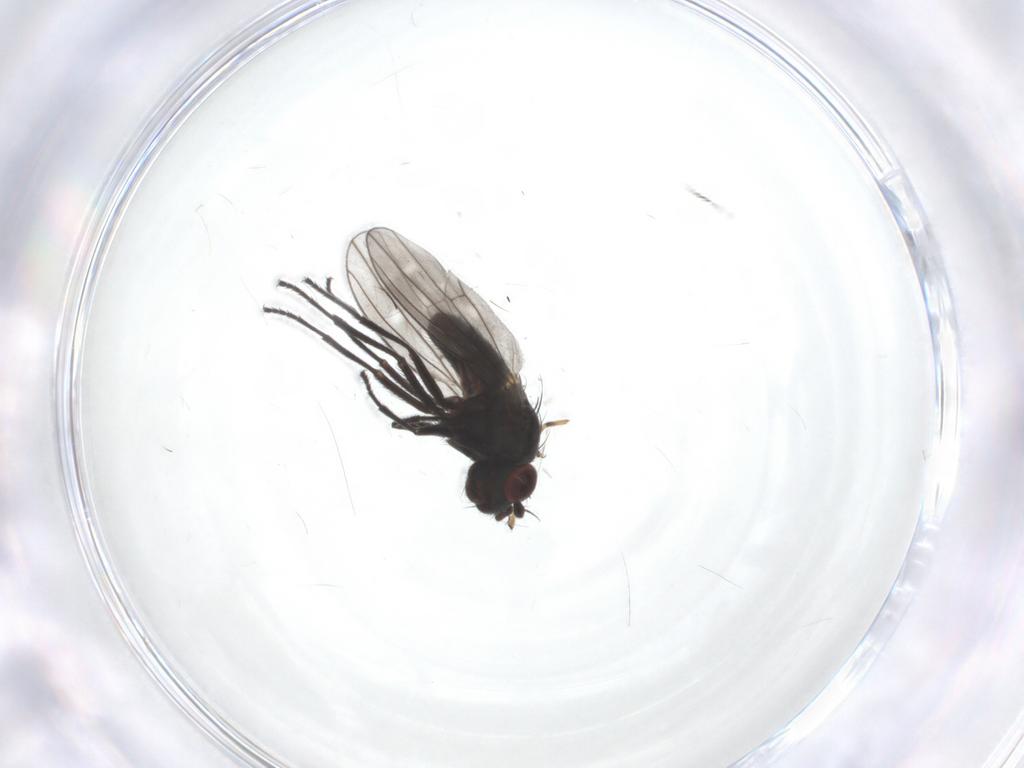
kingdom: Animalia
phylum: Arthropoda
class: Insecta
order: Diptera
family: Ephydridae
